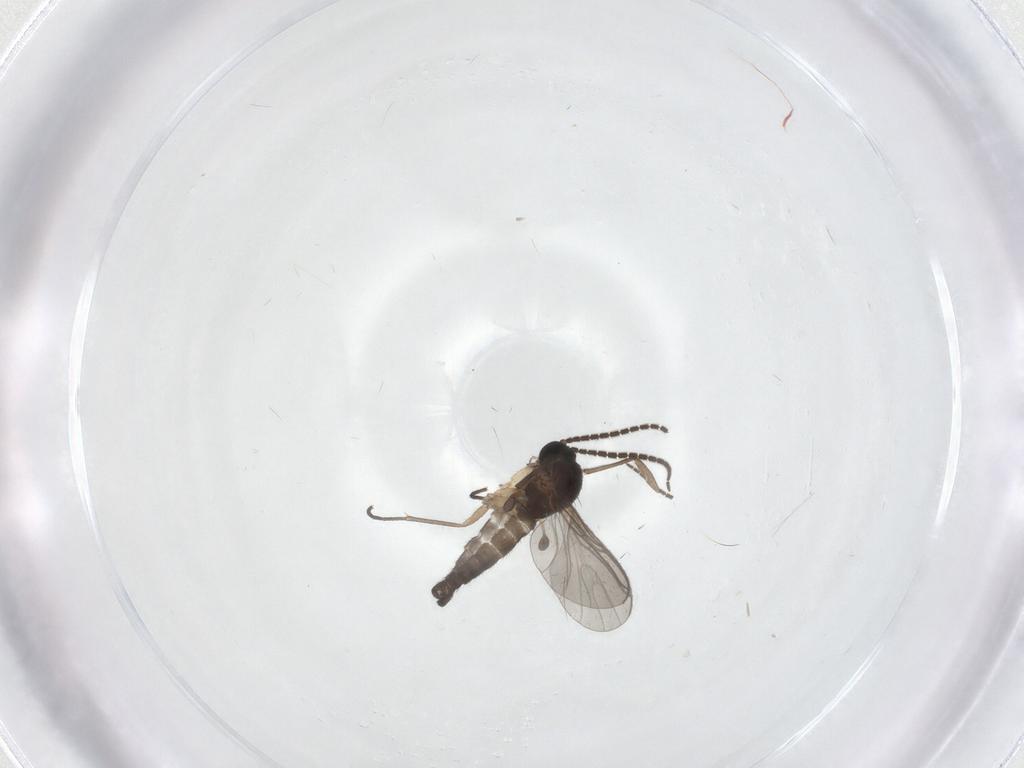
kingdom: Animalia
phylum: Arthropoda
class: Insecta
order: Diptera
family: Sciaridae
